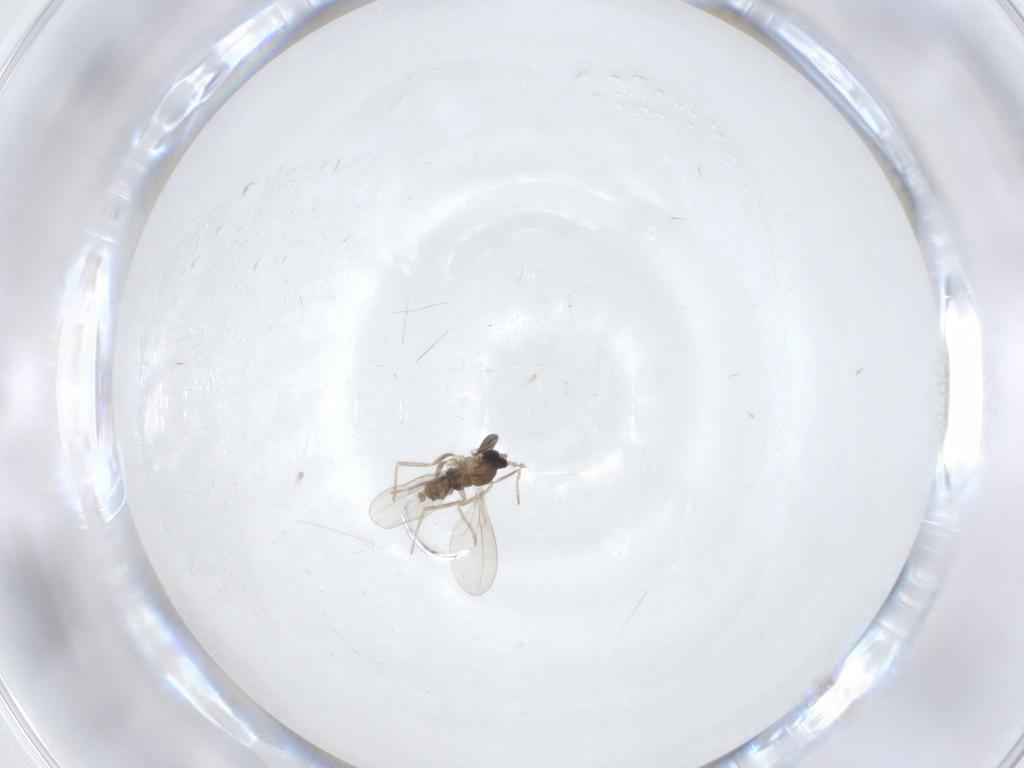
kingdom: Animalia
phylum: Arthropoda
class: Insecta
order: Diptera
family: Sciaridae
